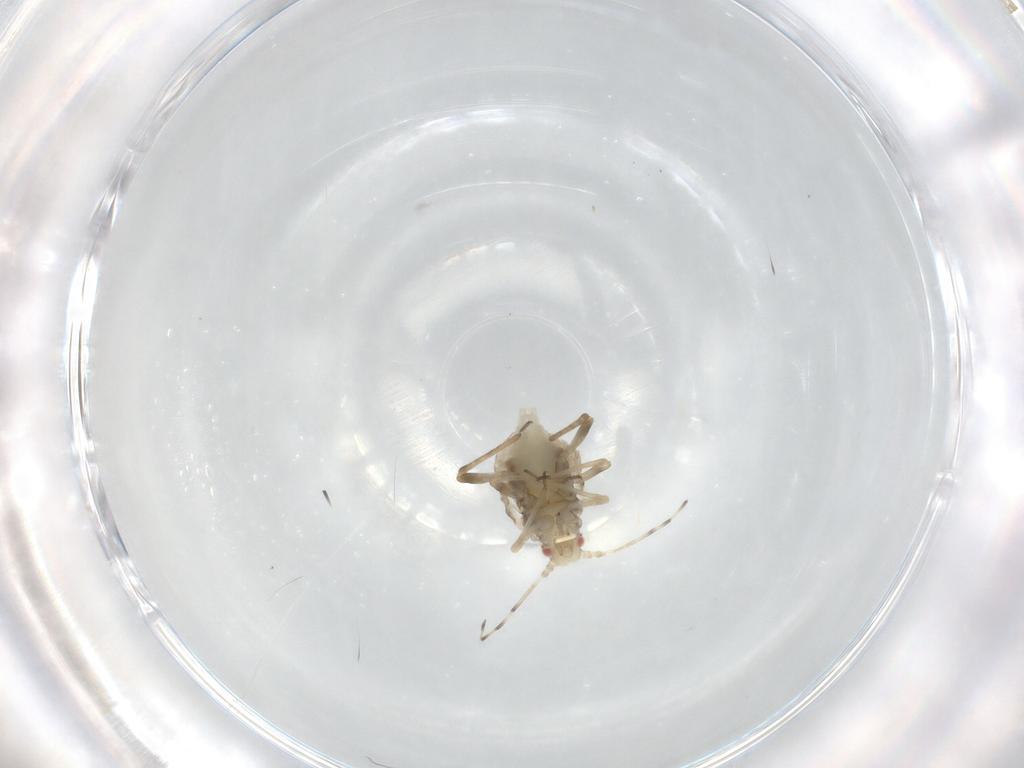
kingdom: Animalia
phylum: Arthropoda
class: Insecta
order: Hemiptera
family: Aphididae
